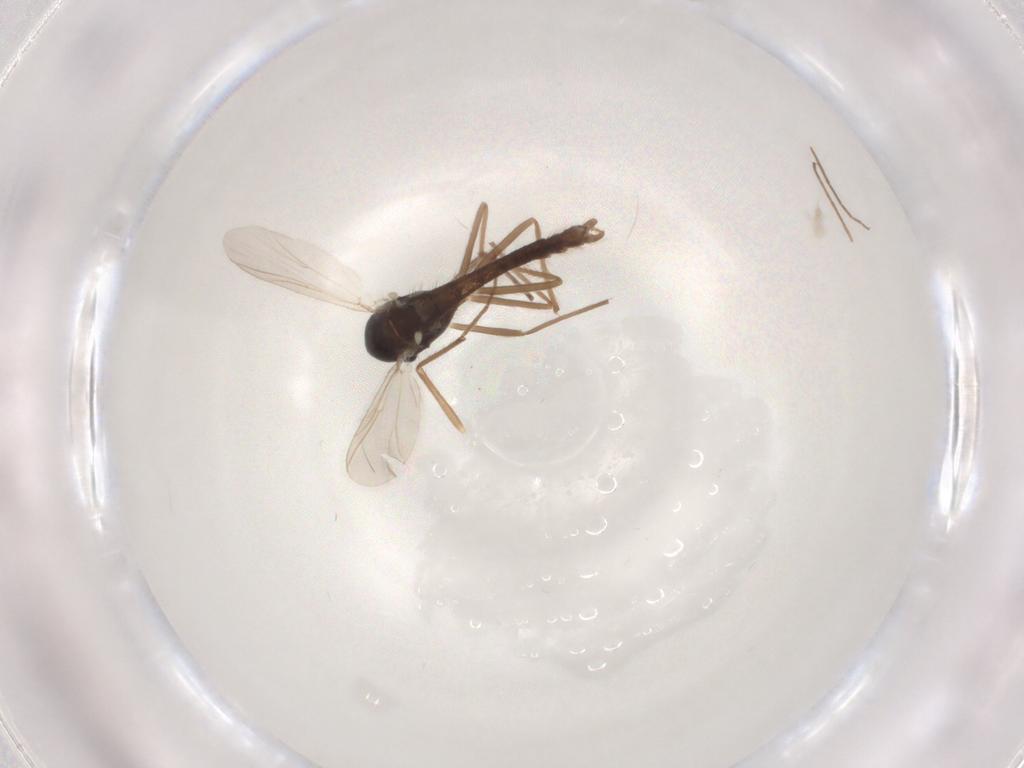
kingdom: Animalia
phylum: Arthropoda
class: Insecta
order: Diptera
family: Chironomidae
